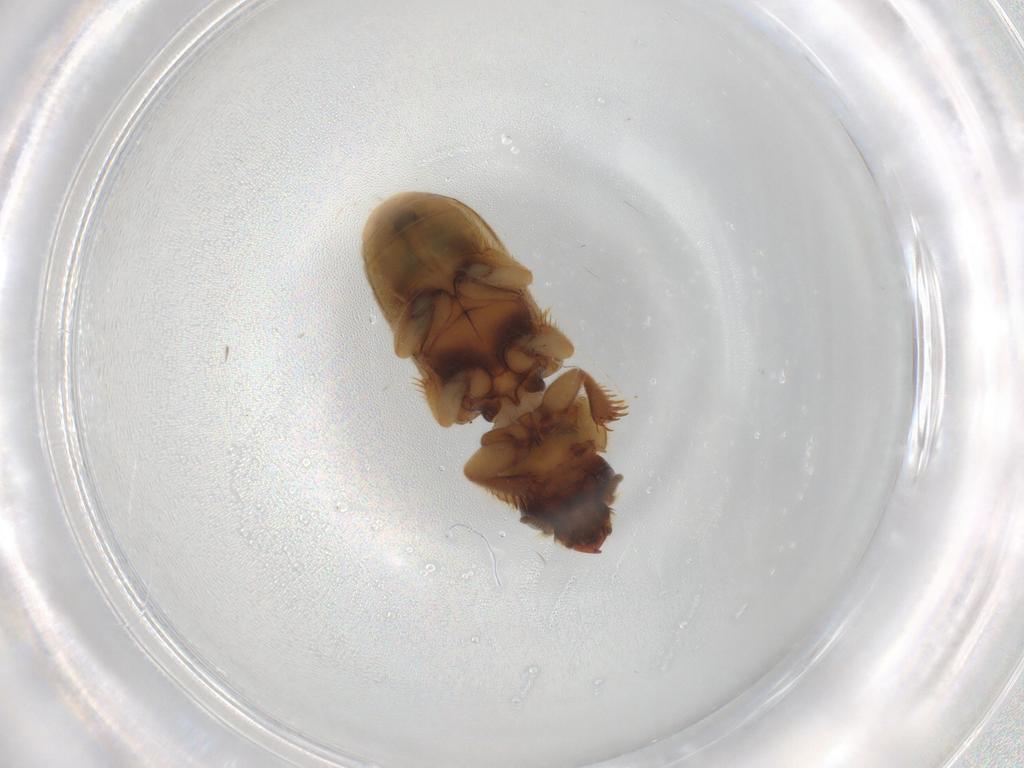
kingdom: Animalia
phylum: Arthropoda
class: Insecta
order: Coleoptera
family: Heteroceridae
